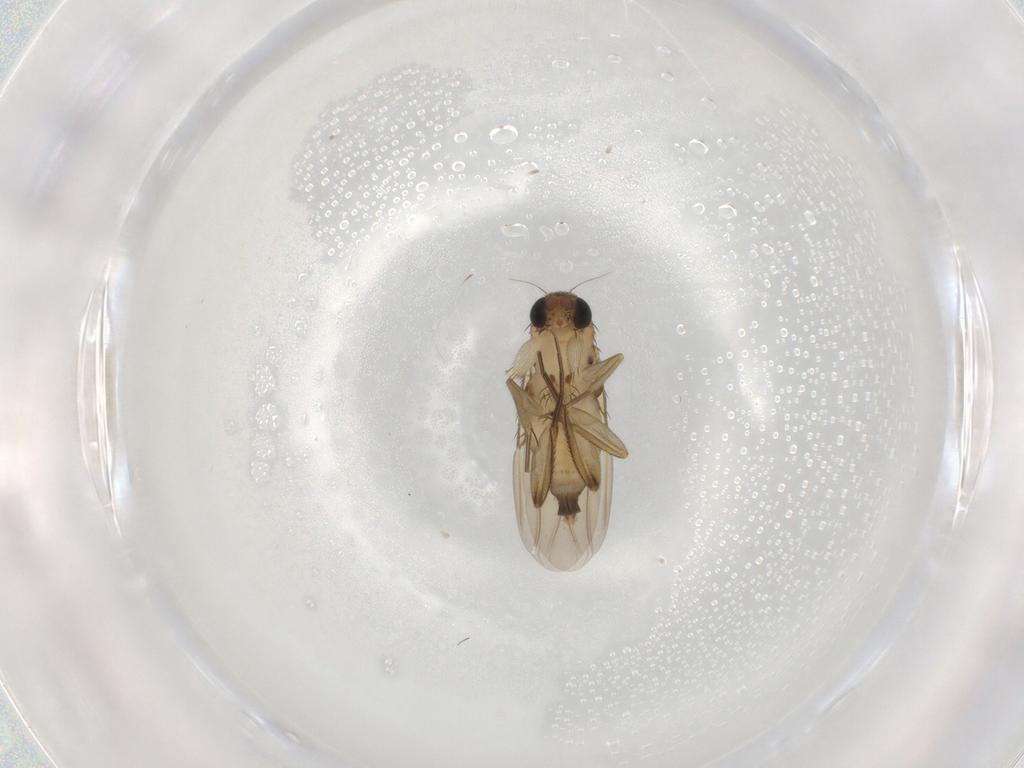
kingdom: Animalia
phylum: Arthropoda
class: Insecta
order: Diptera
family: Phoridae
